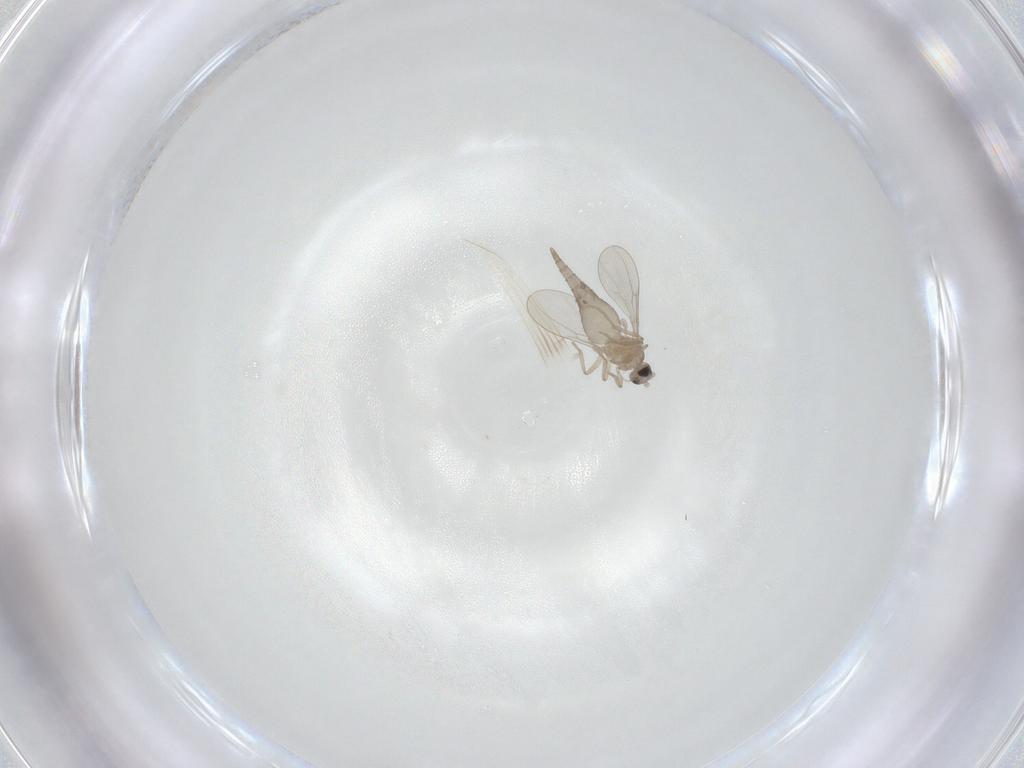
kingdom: Animalia
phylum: Arthropoda
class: Insecta
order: Diptera
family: Cecidomyiidae
